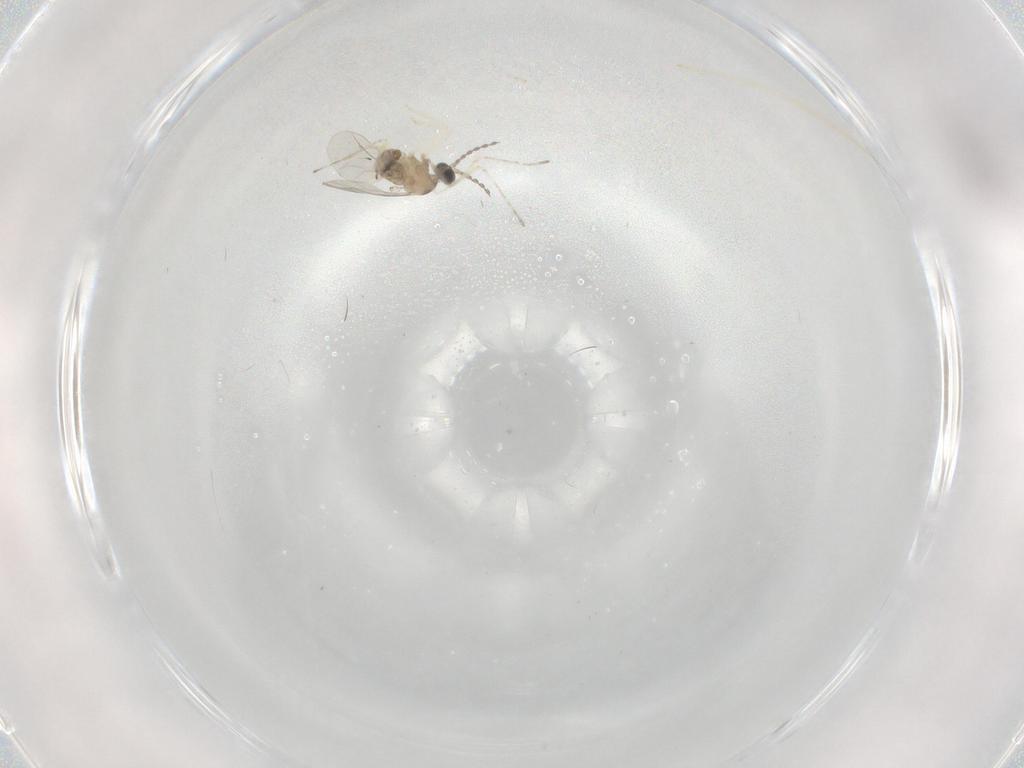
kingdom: Animalia
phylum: Arthropoda
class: Insecta
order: Diptera
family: Cecidomyiidae
